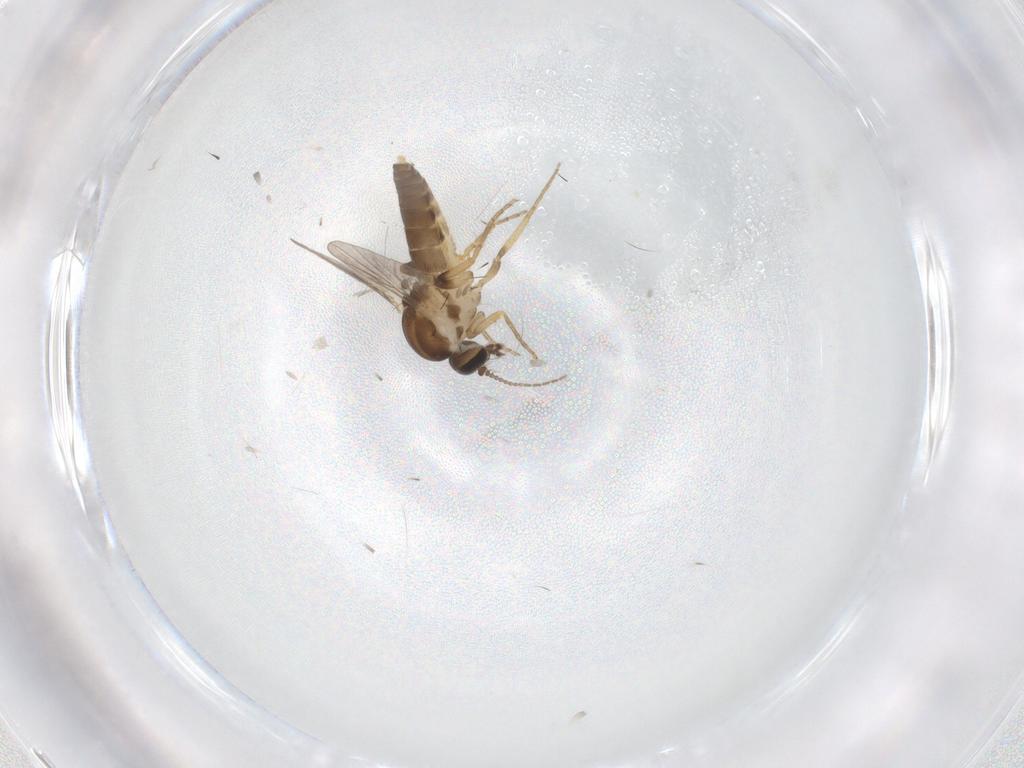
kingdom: Animalia
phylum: Arthropoda
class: Insecta
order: Diptera
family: Ceratopogonidae
